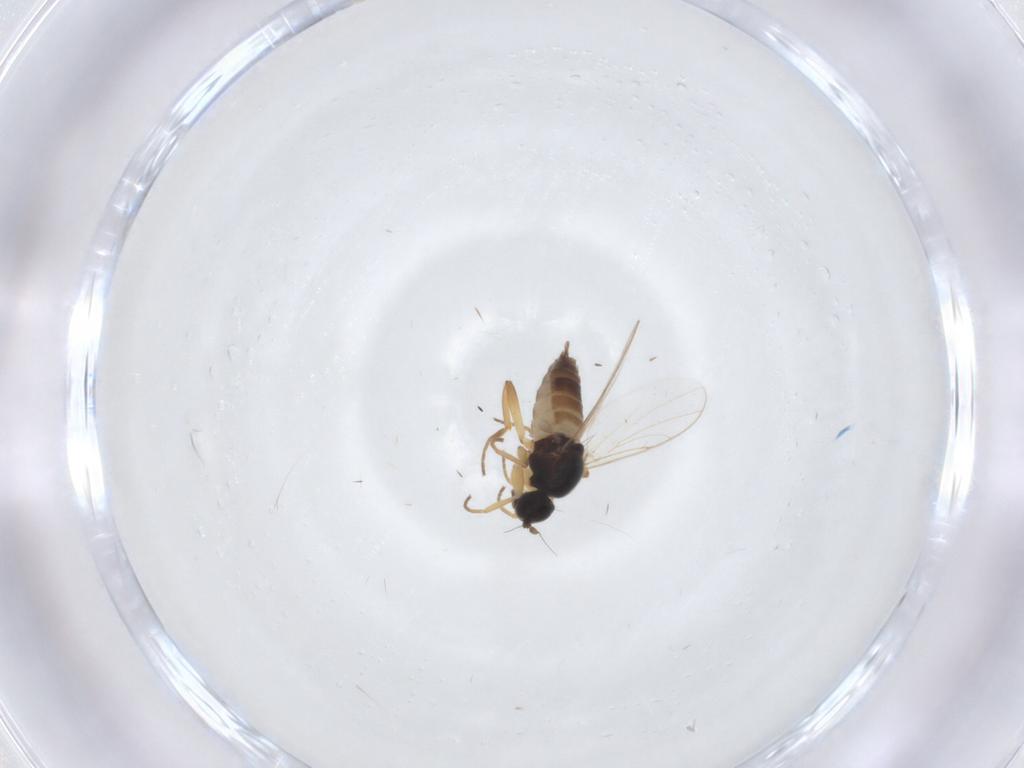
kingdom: Animalia
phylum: Arthropoda
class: Insecta
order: Diptera
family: Hybotidae
